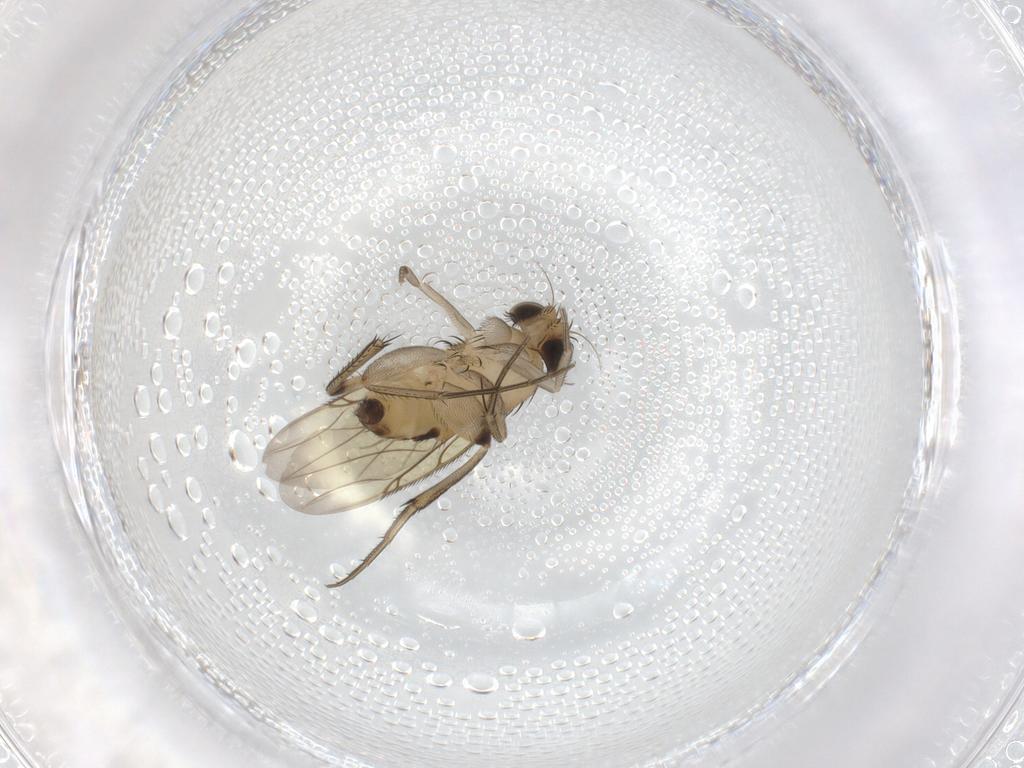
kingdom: Animalia
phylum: Arthropoda
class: Insecta
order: Diptera
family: Phoridae
